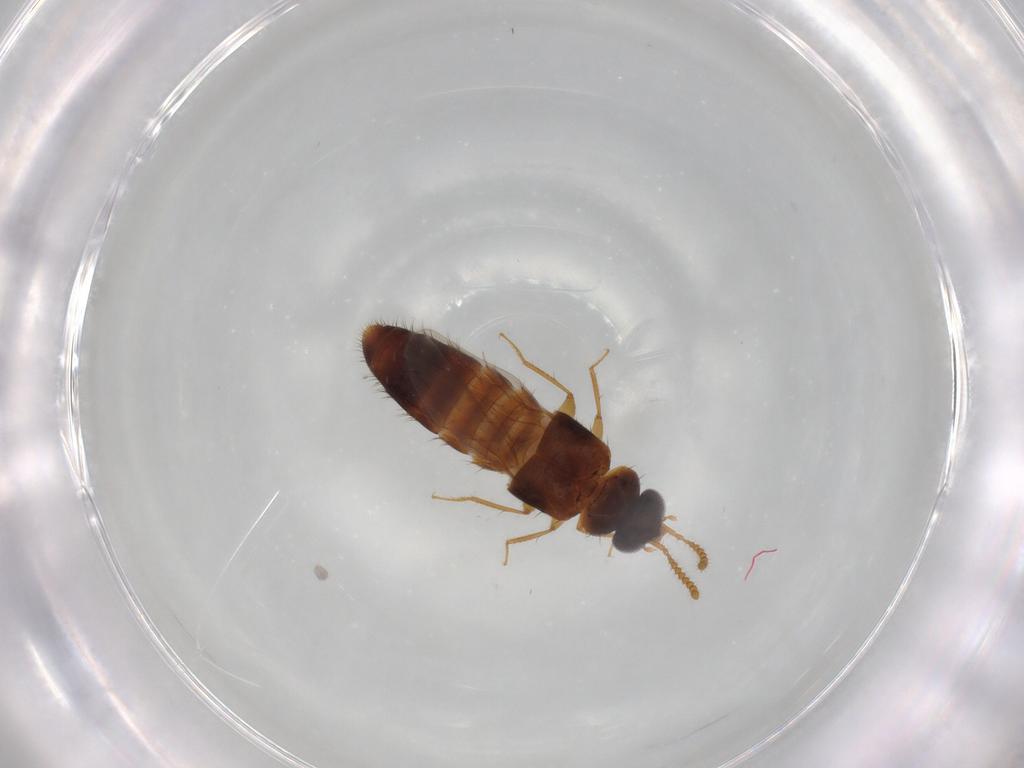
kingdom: Animalia
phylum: Arthropoda
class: Insecta
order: Coleoptera
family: Staphylinidae
